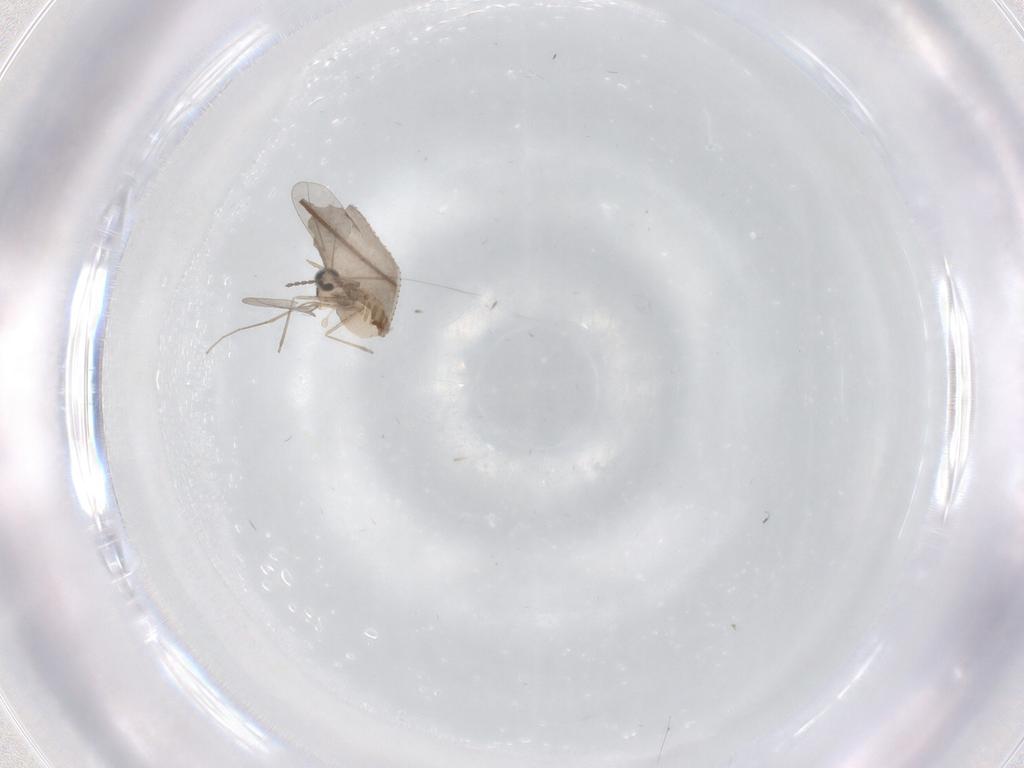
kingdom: Animalia
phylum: Arthropoda
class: Insecta
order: Diptera
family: Cecidomyiidae
